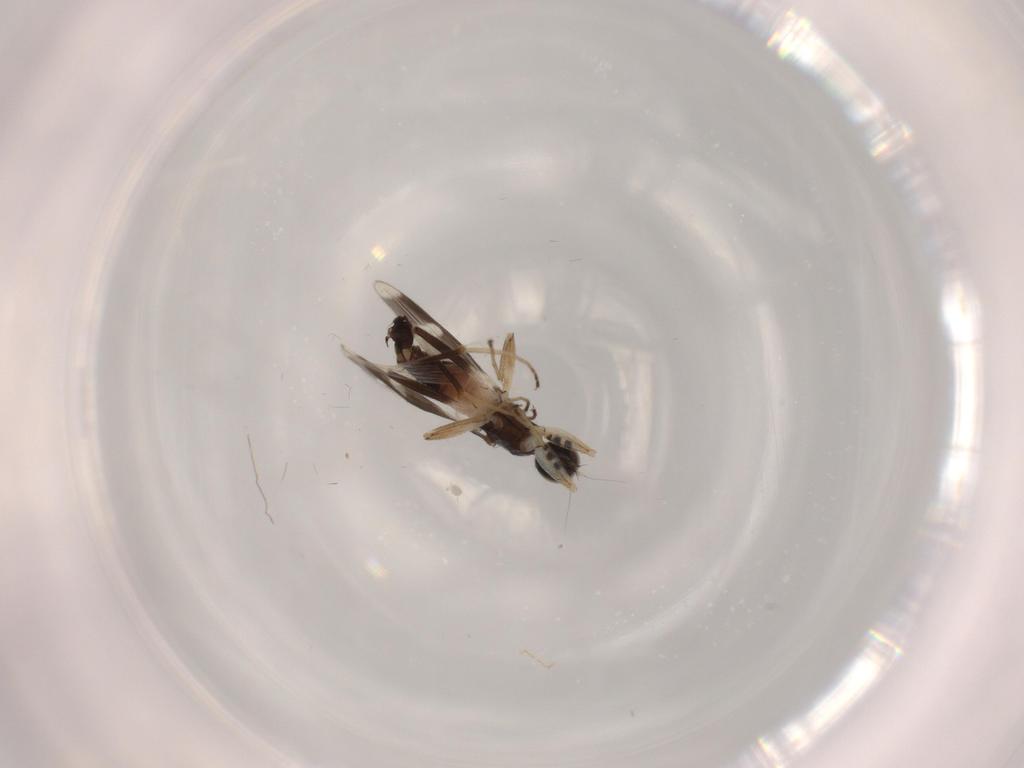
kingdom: Animalia
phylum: Arthropoda
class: Insecta
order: Diptera
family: Hybotidae
